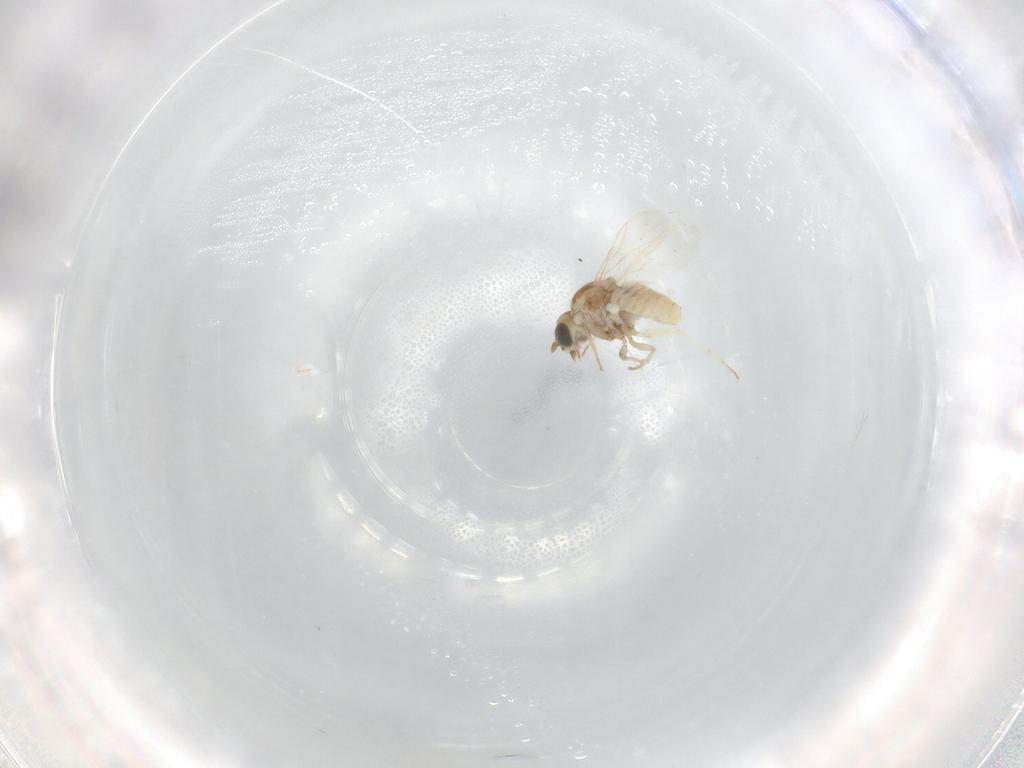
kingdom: Animalia
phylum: Arthropoda
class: Insecta
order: Diptera
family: Bombyliidae
